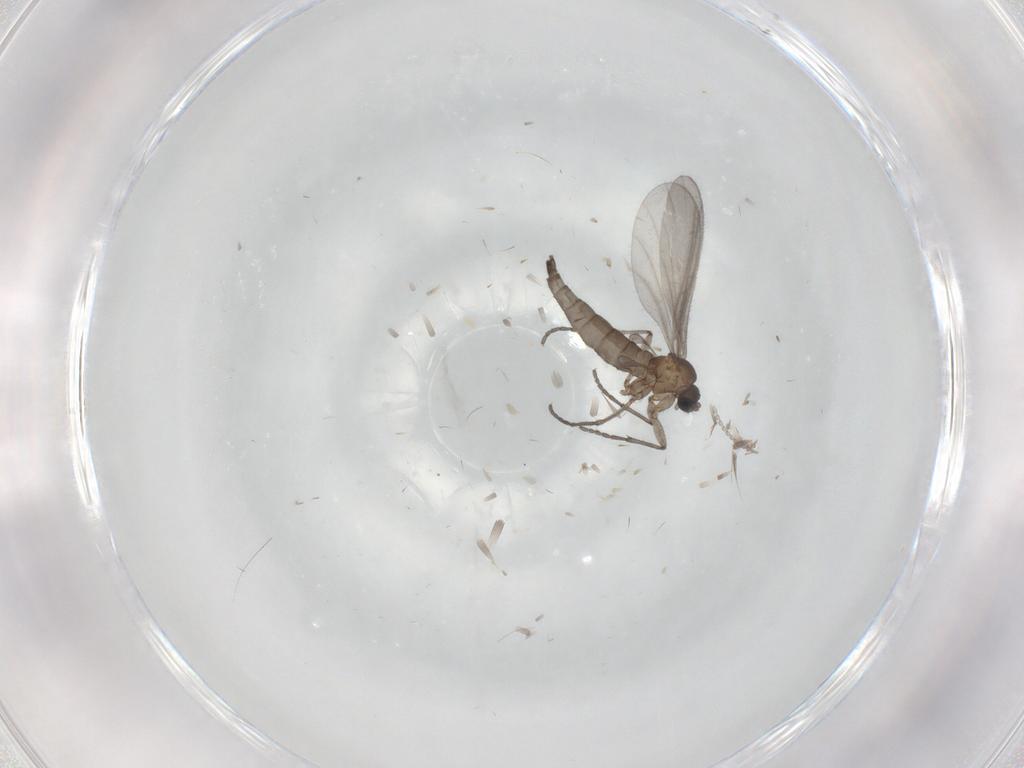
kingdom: Animalia
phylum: Arthropoda
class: Insecta
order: Diptera
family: Sciaridae
